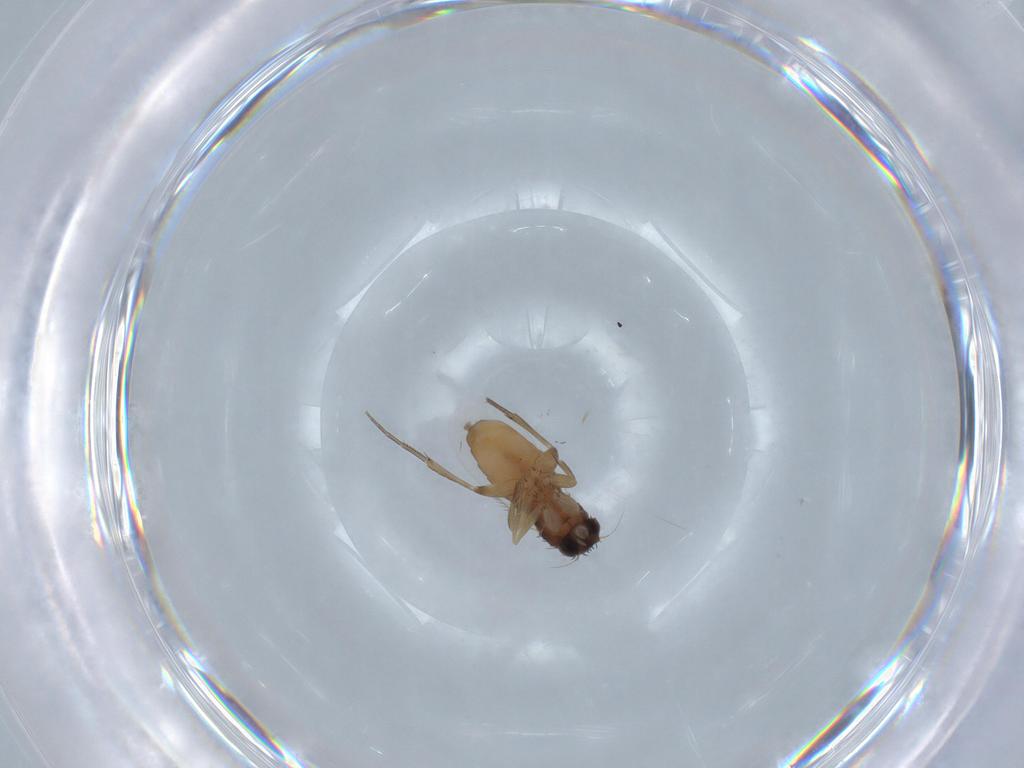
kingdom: Animalia
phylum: Arthropoda
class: Insecta
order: Diptera
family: Phoridae
